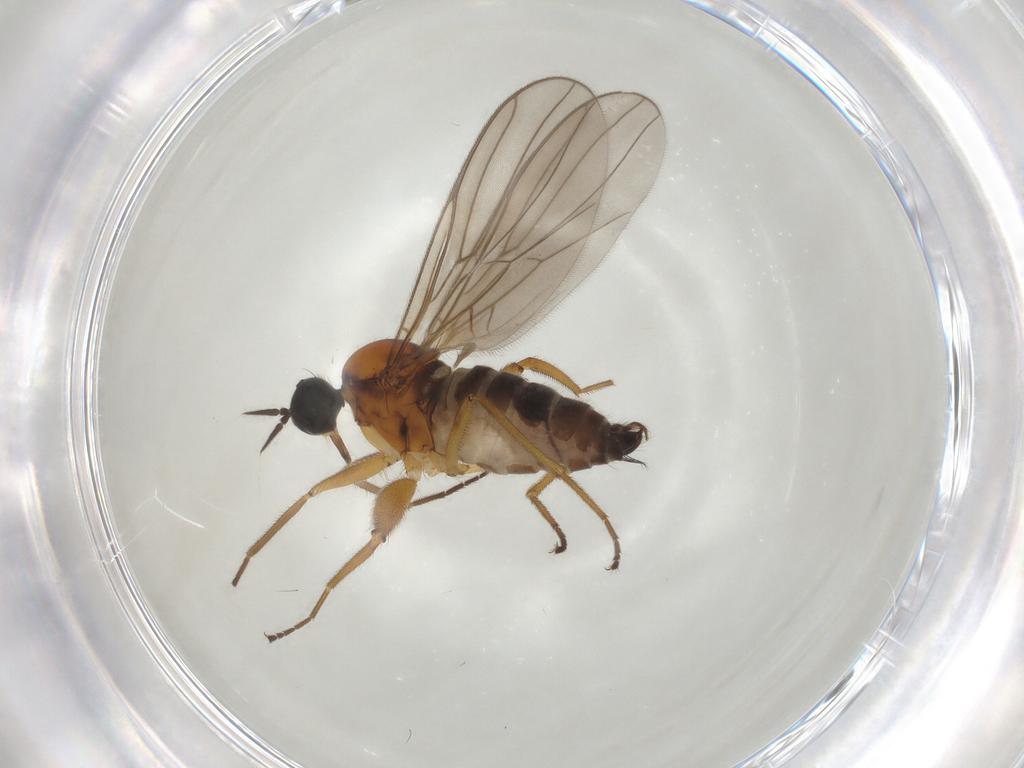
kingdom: Animalia
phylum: Arthropoda
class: Insecta
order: Diptera
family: Hybotidae
